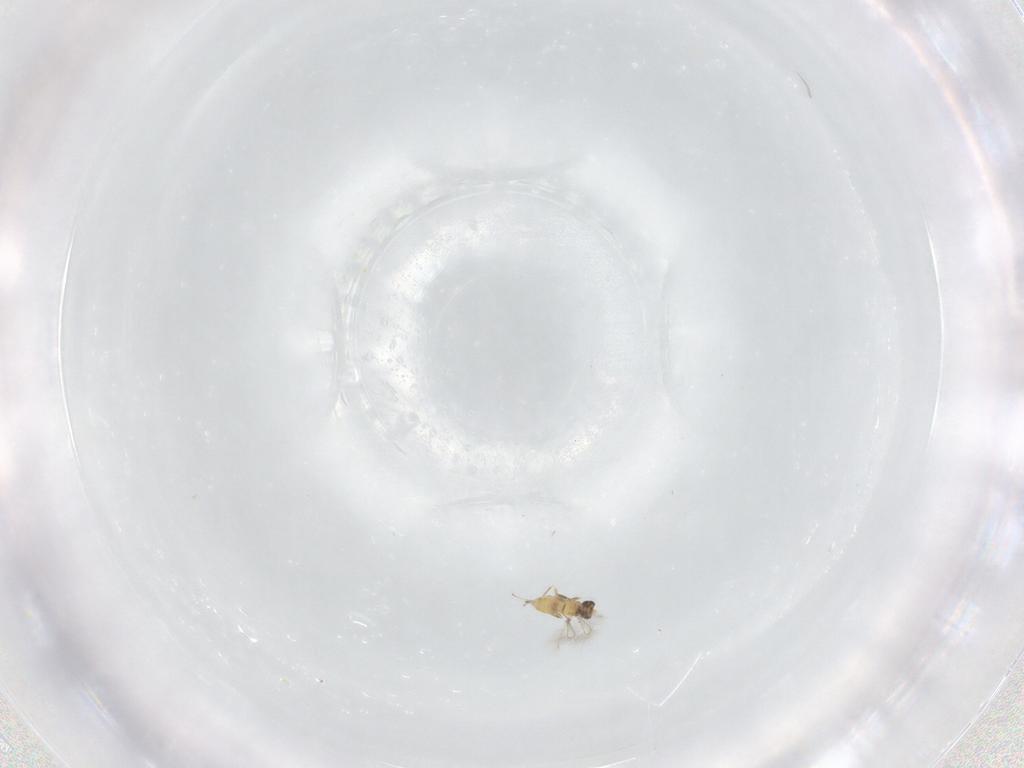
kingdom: Animalia
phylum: Arthropoda
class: Insecta
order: Hymenoptera
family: Mymaridae
